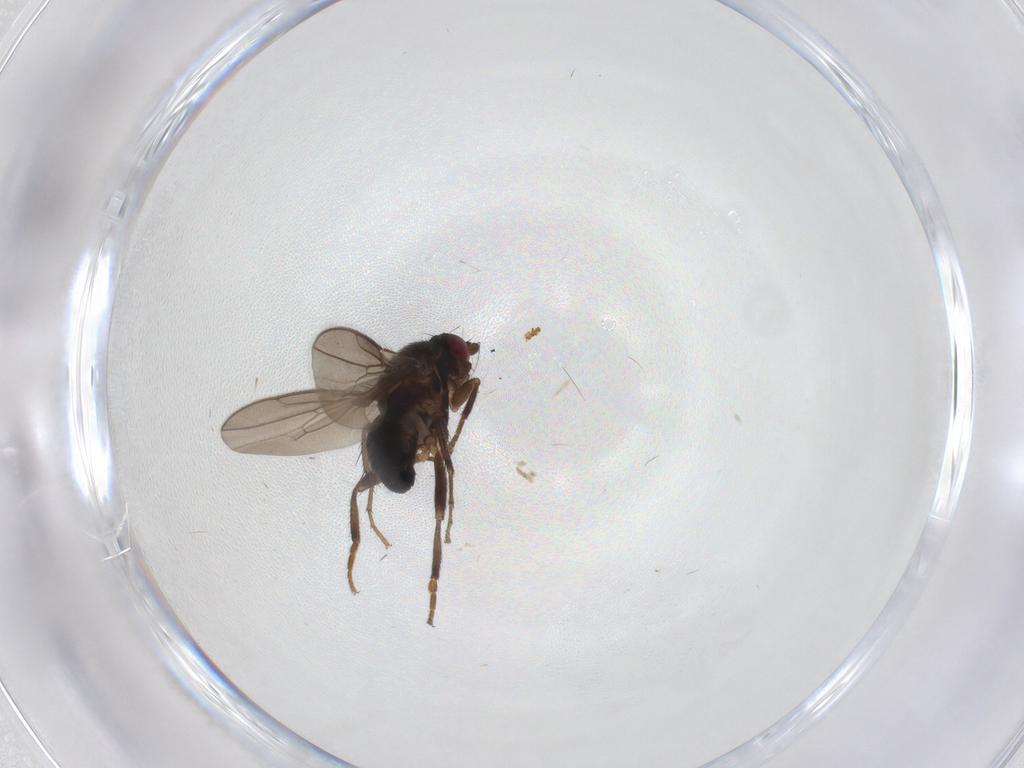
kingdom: Animalia
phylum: Arthropoda
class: Insecta
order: Diptera
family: Sphaeroceridae
